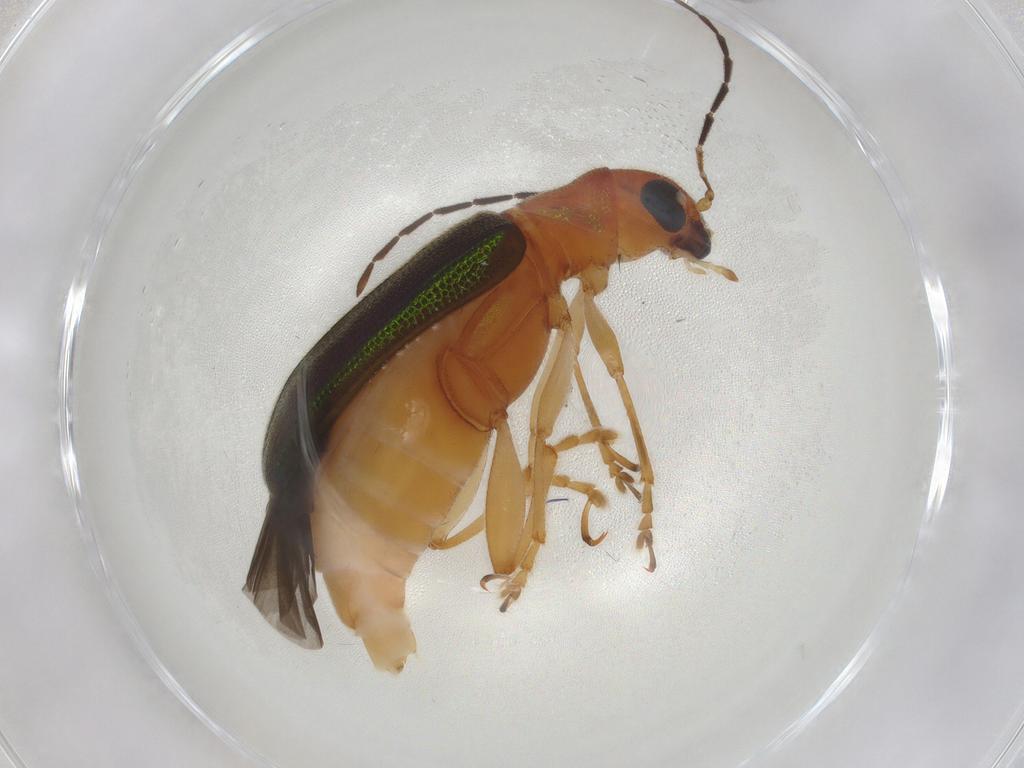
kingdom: Animalia
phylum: Arthropoda
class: Insecta
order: Coleoptera
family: Chrysomelidae
